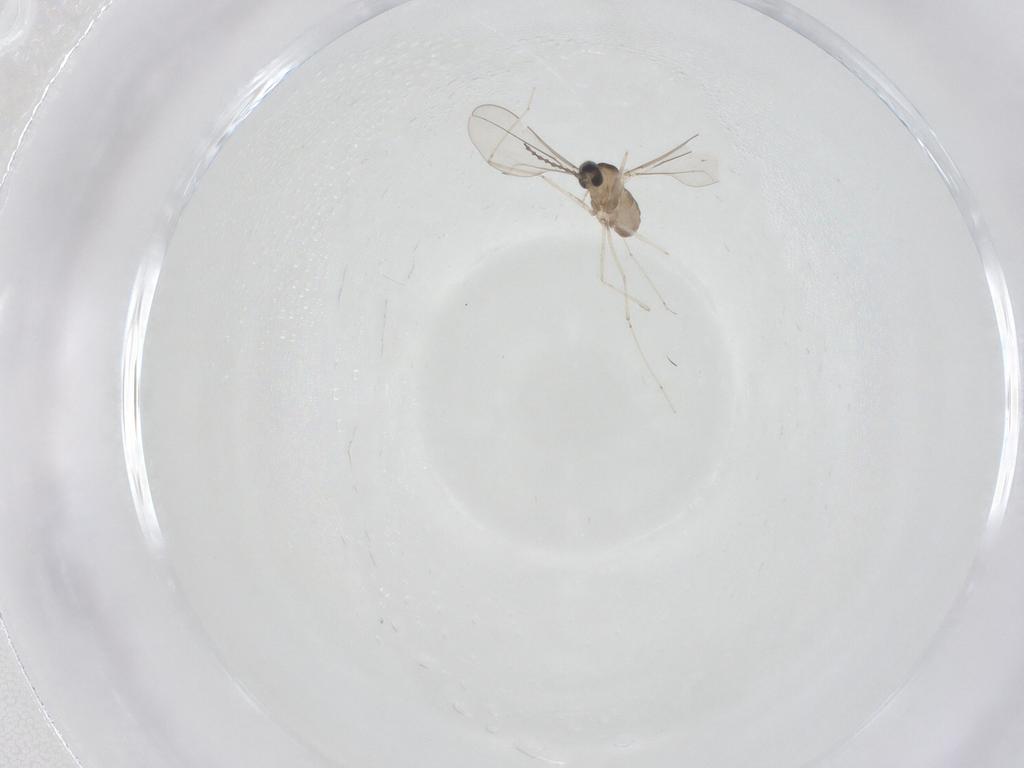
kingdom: Animalia
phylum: Arthropoda
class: Insecta
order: Diptera
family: Cecidomyiidae
